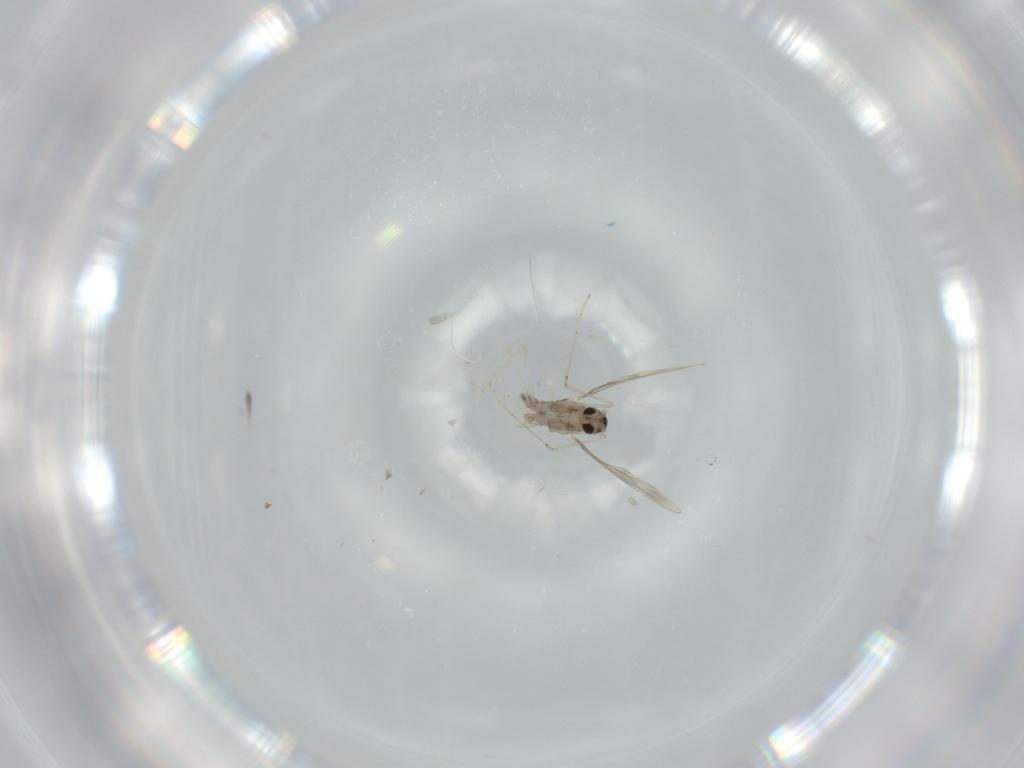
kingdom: Animalia
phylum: Arthropoda
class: Insecta
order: Diptera
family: Cecidomyiidae
